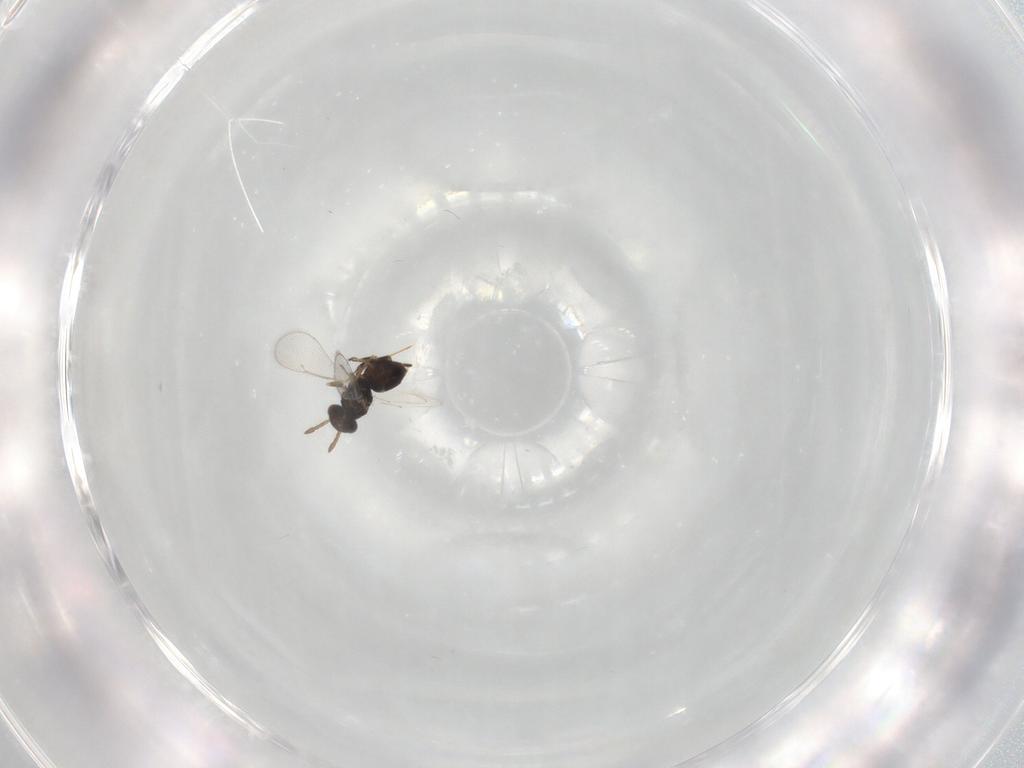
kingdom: Animalia
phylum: Arthropoda
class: Insecta
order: Hymenoptera
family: Eulophidae
